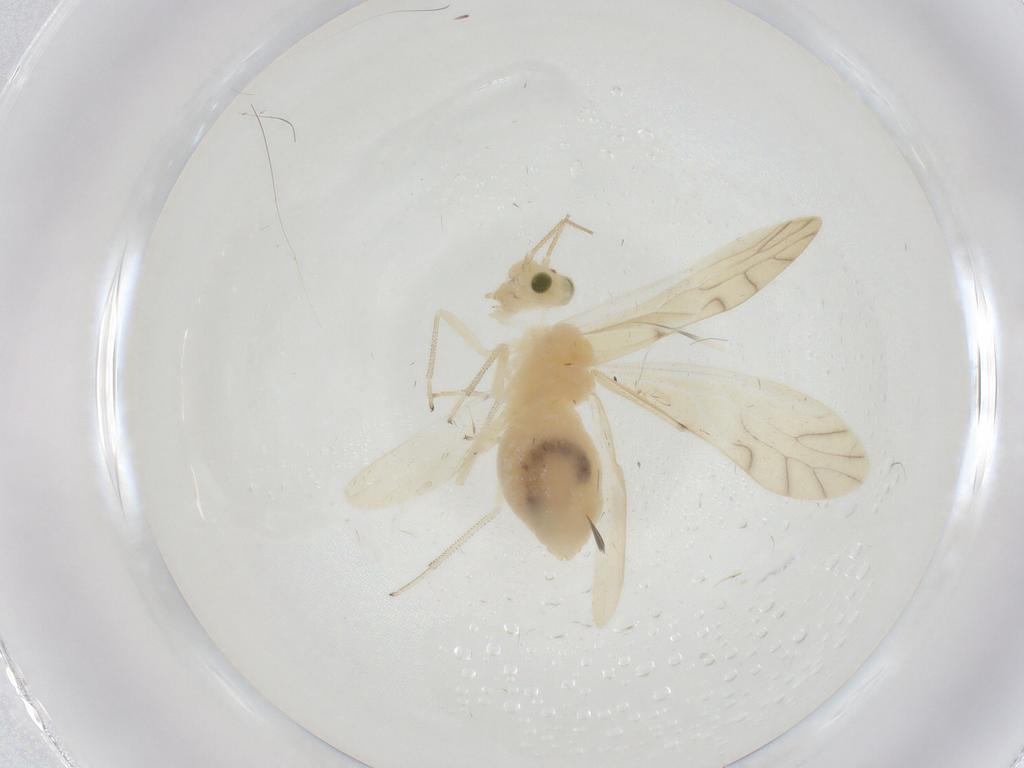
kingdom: Animalia
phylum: Arthropoda
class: Insecta
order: Psocodea
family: Caeciliusidae
